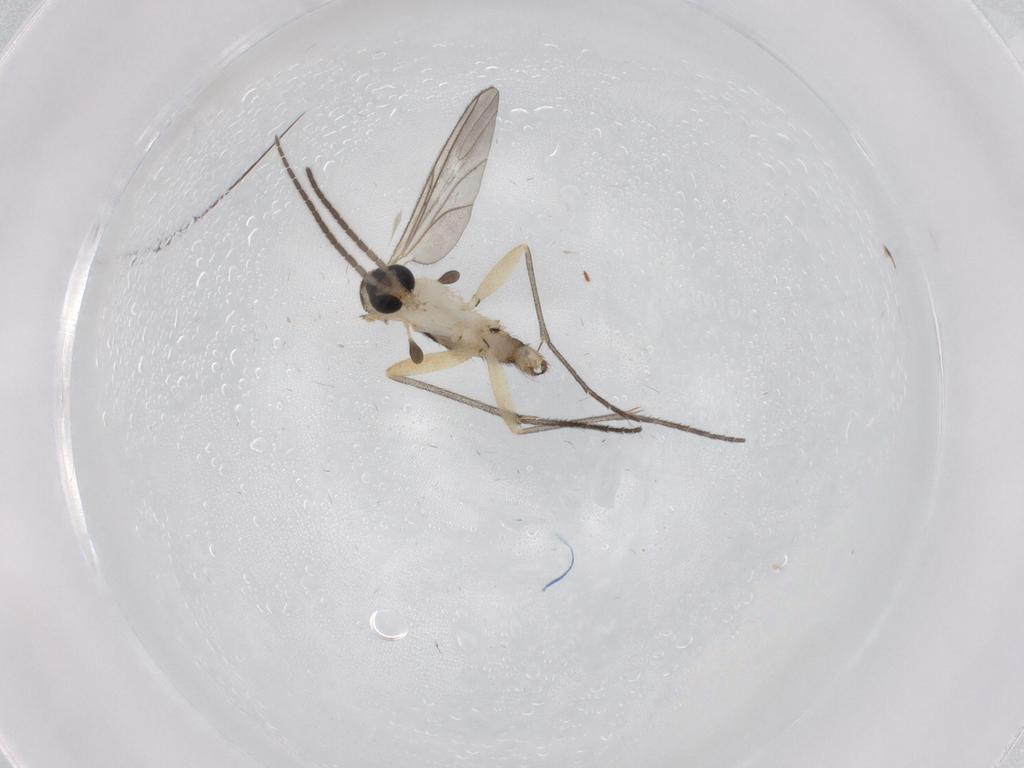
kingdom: Animalia
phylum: Arthropoda
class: Insecta
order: Diptera
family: Sciaridae
